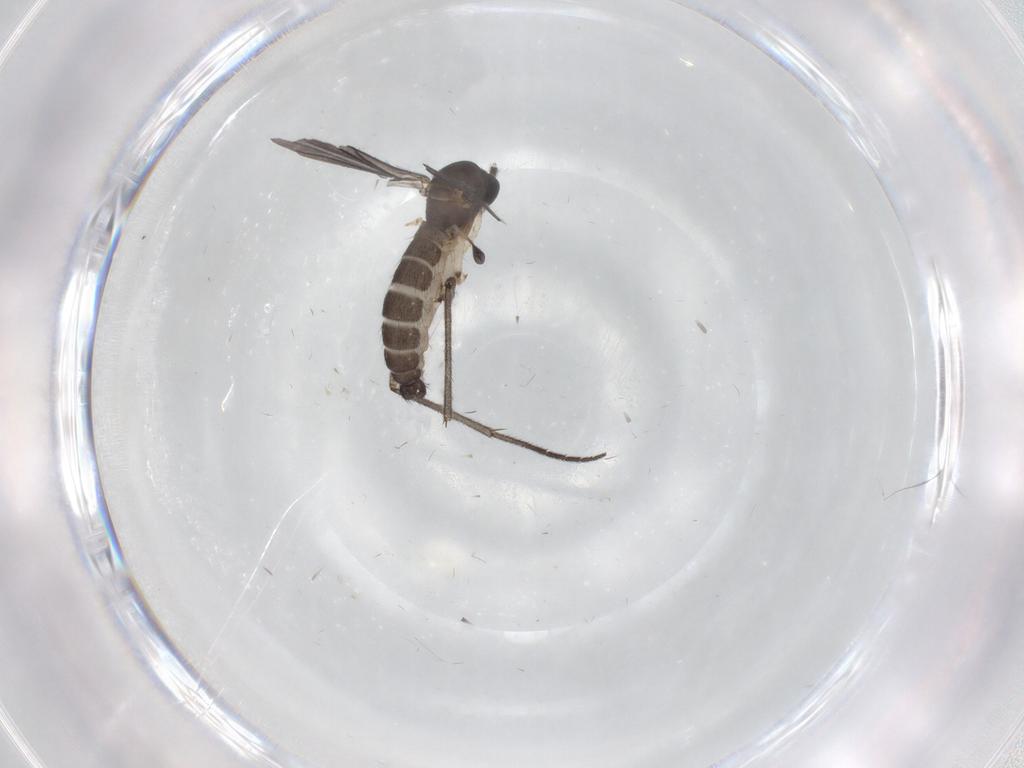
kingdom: Animalia
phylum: Arthropoda
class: Insecta
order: Diptera
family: Sciaridae
